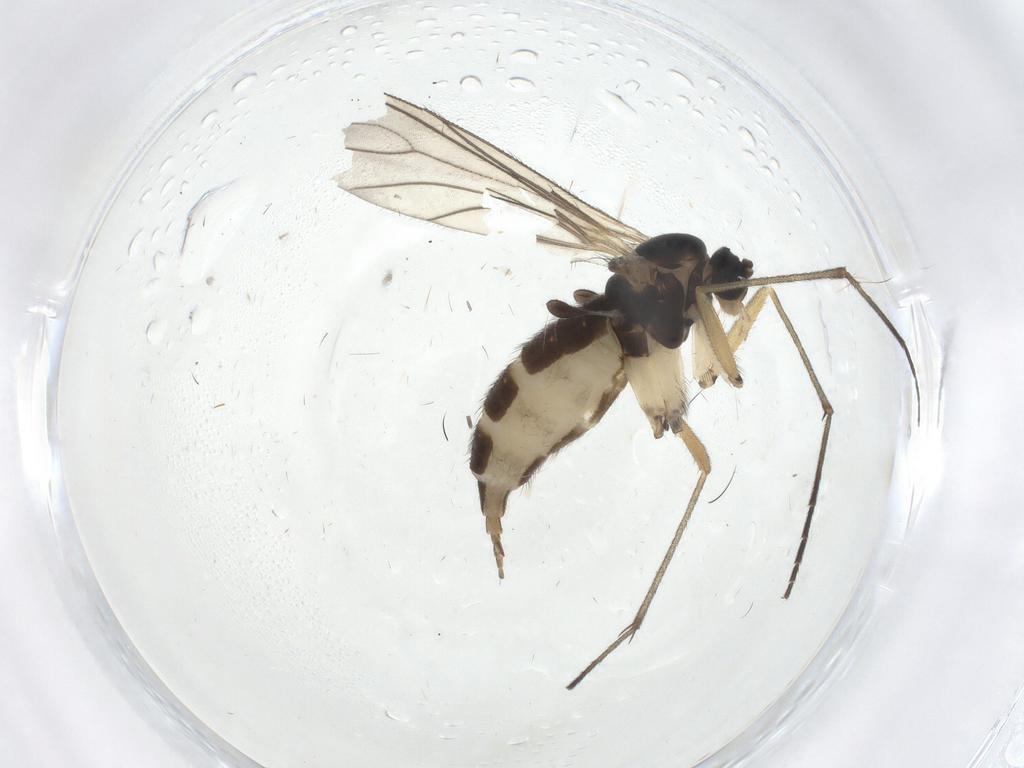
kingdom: Animalia
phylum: Arthropoda
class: Insecta
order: Diptera
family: Sciaridae
